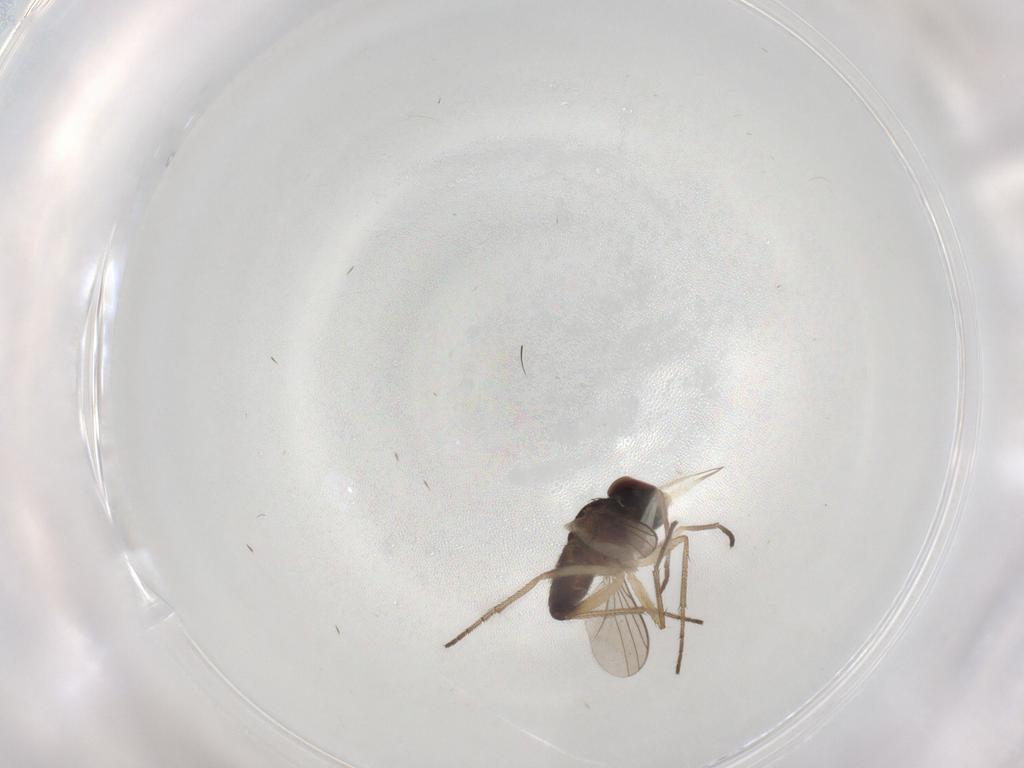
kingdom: Animalia
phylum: Arthropoda
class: Insecta
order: Diptera
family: Dolichopodidae
